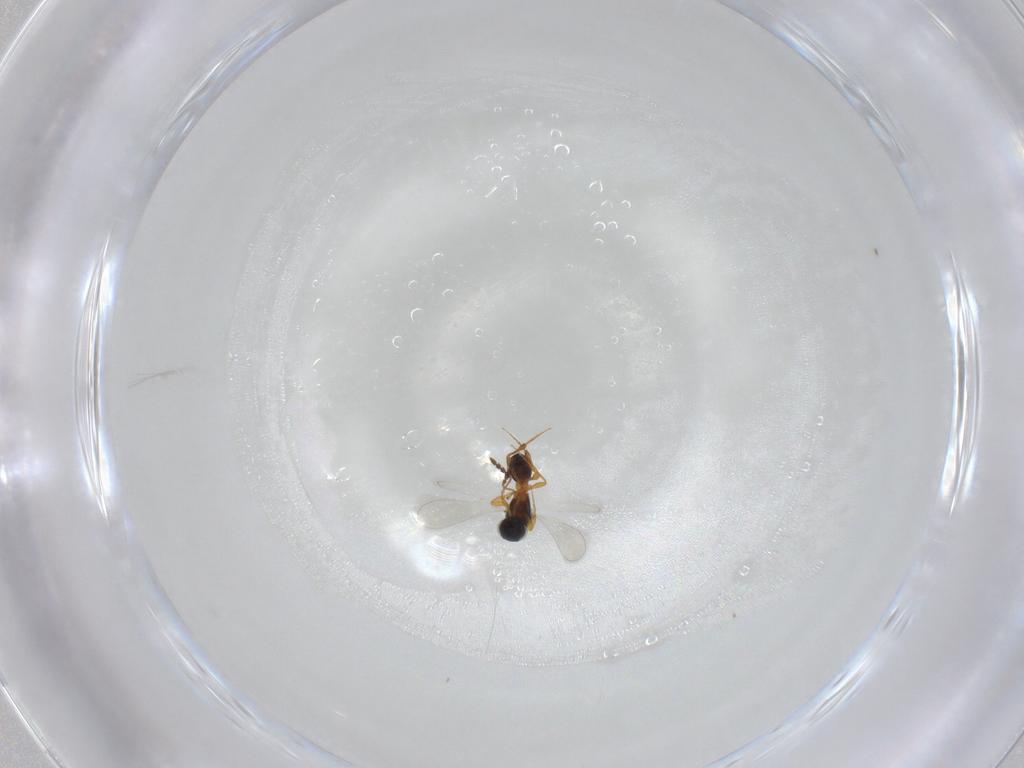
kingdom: Animalia
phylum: Arthropoda
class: Insecta
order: Hymenoptera
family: Platygastridae
